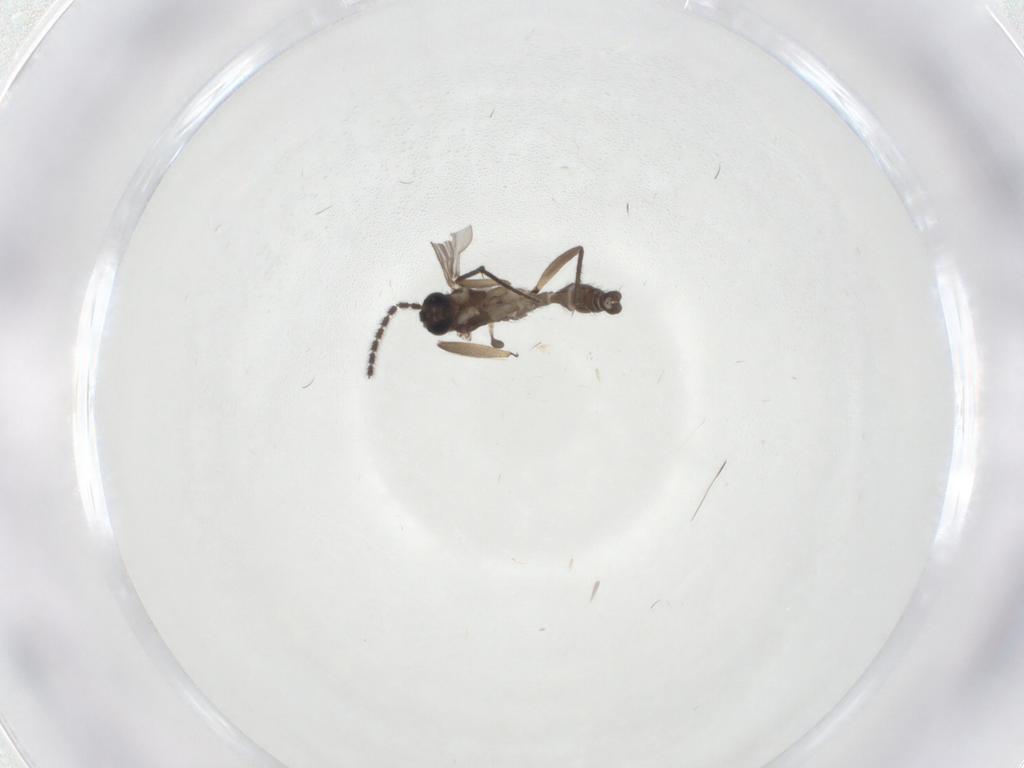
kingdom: Animalia
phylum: Arthropoda
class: Insecta
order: Diptera
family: Sciaridae
